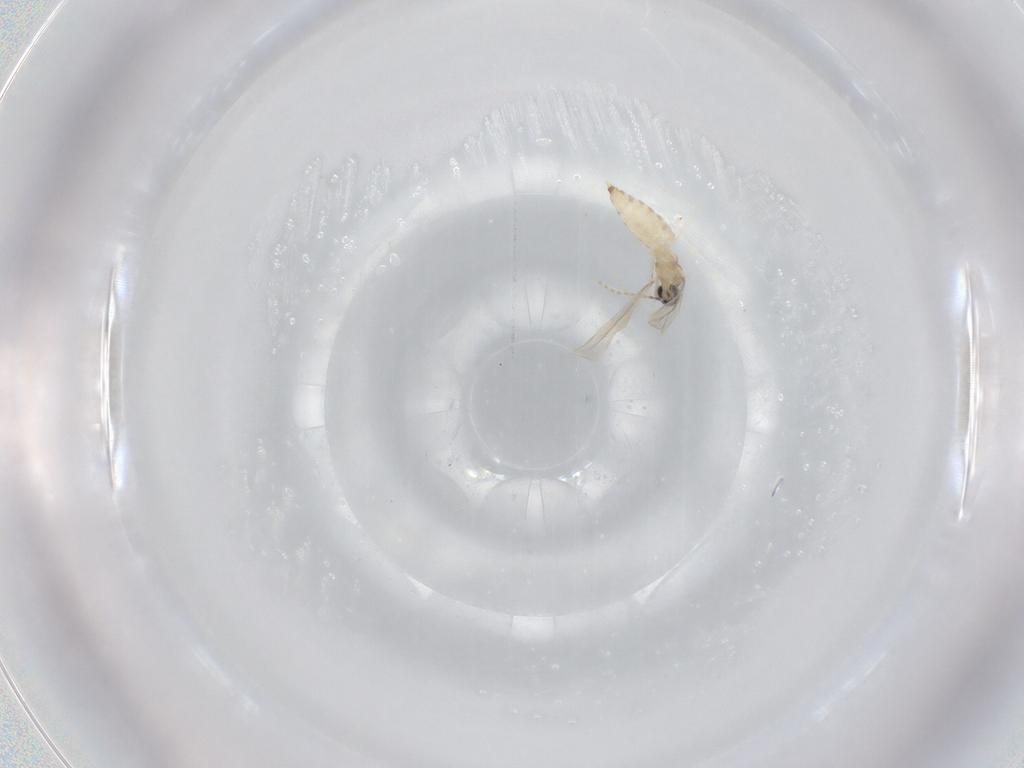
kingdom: Animalia
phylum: Arthropoda
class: Insecta
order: Diptera
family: Cecidomyiidae
